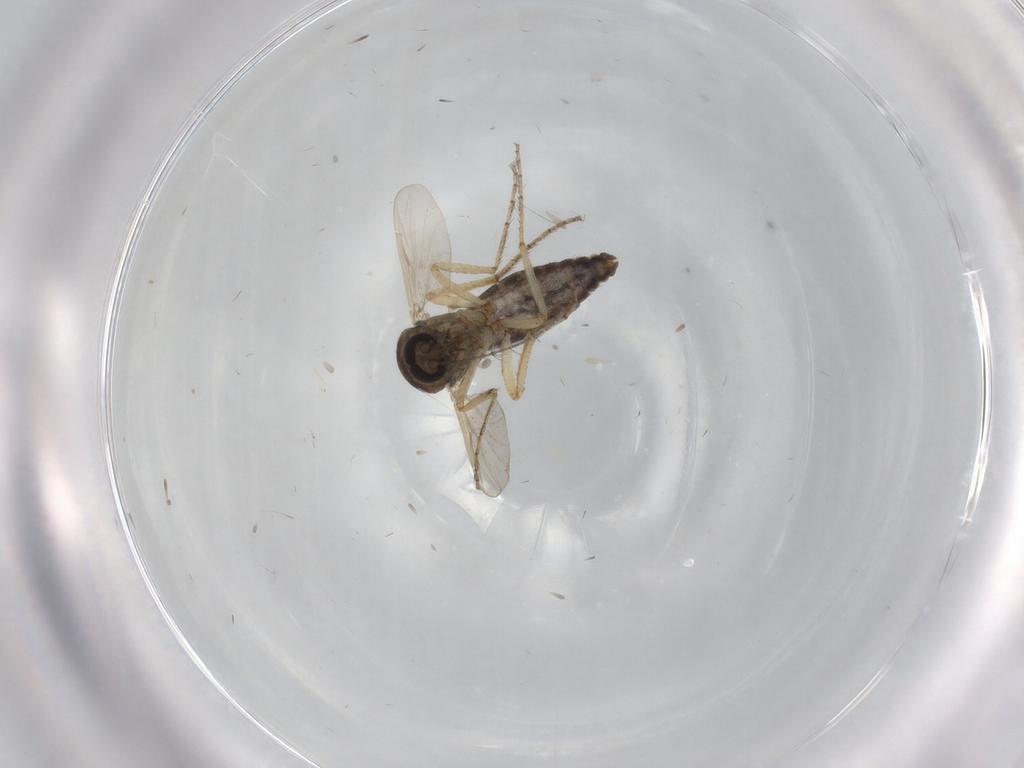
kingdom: Animalia
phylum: Arthropoda
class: Insecta
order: Diptera
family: Ceratopogonidae
